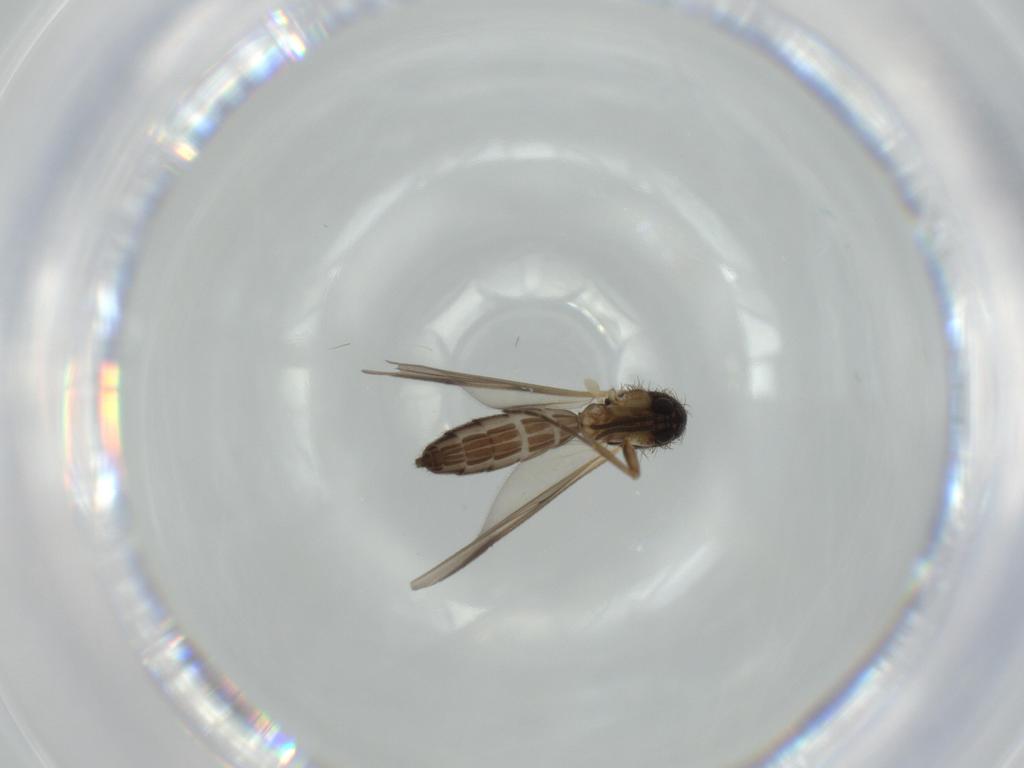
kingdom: Animalia
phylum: Arthropoda
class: Insecta
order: Diptera
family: Mycetophilidae
